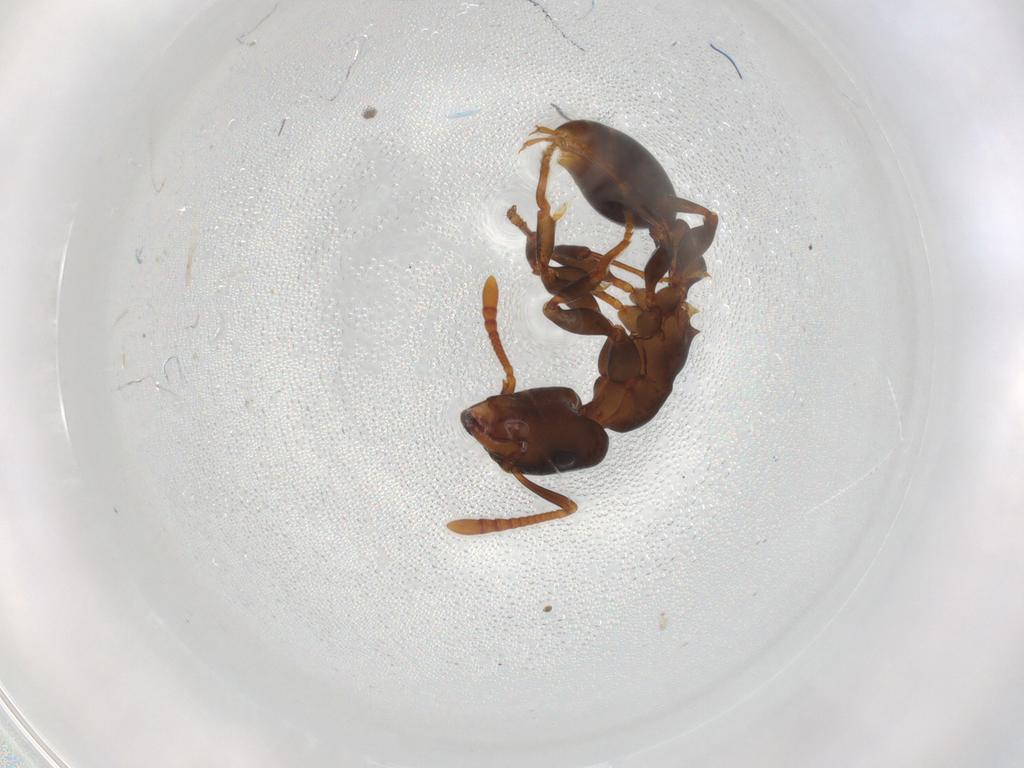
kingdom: Animalia
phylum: Arthropoda
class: Insecta
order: Hymenoptera
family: Formicidae
